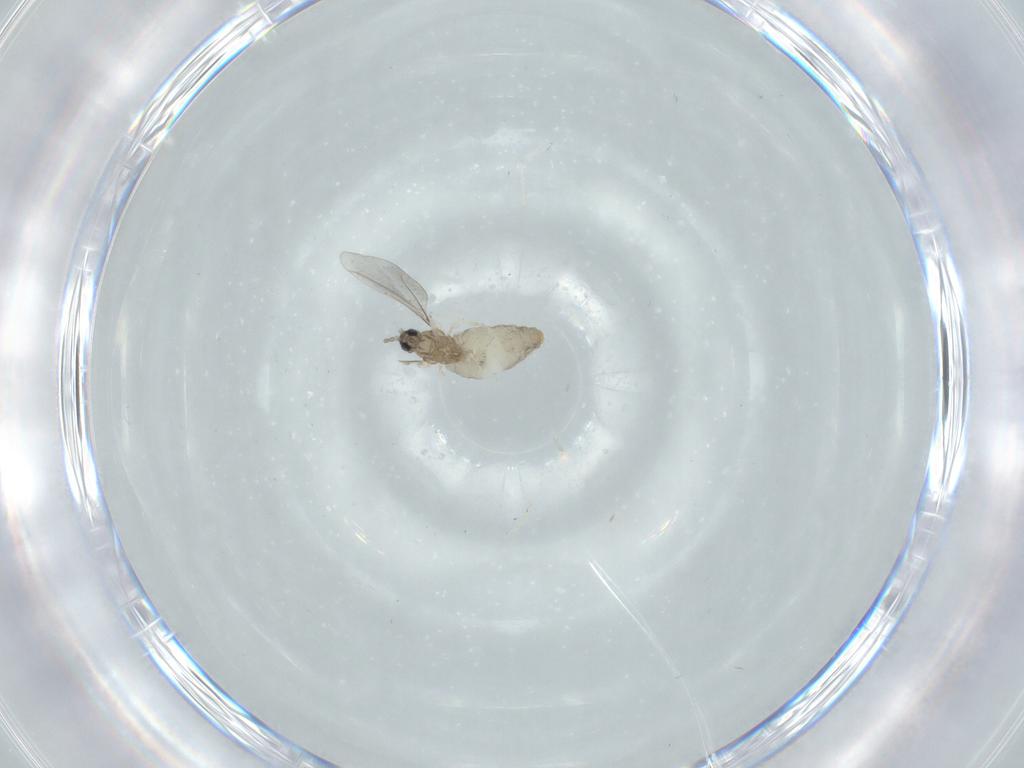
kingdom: Animalia
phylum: Arthropoda
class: Insecta
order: Diptera
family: Cecidomyiidae
